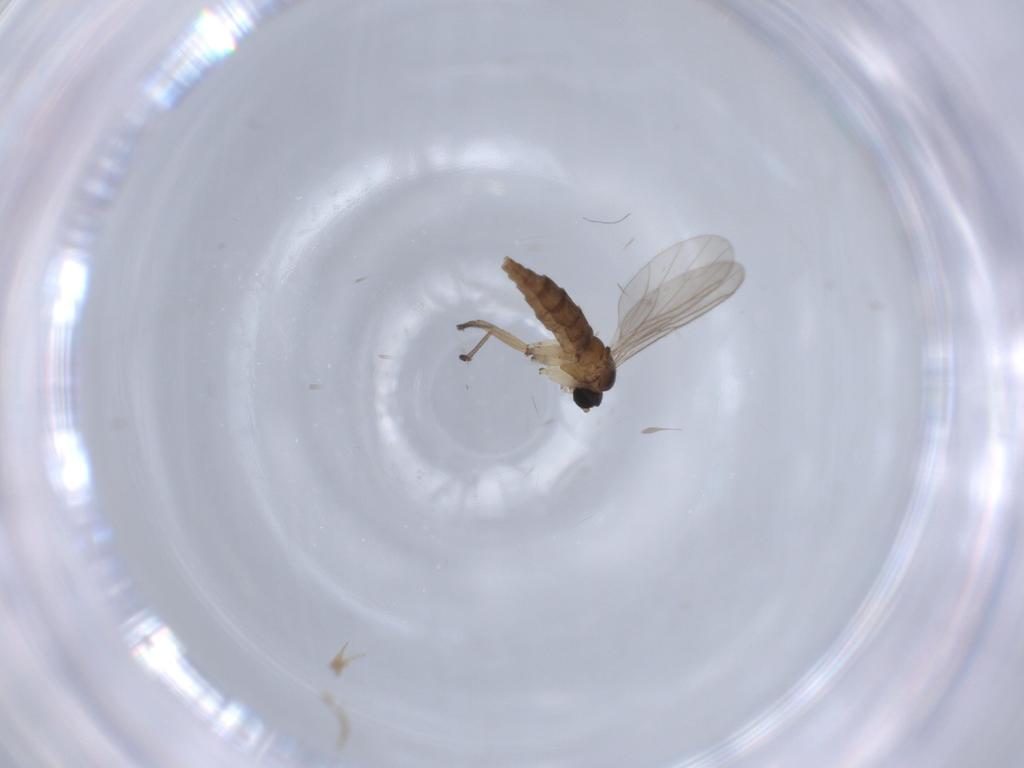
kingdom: Animalia
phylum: Arthropoda
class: Insecta
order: Diptera
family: Sciaridae
